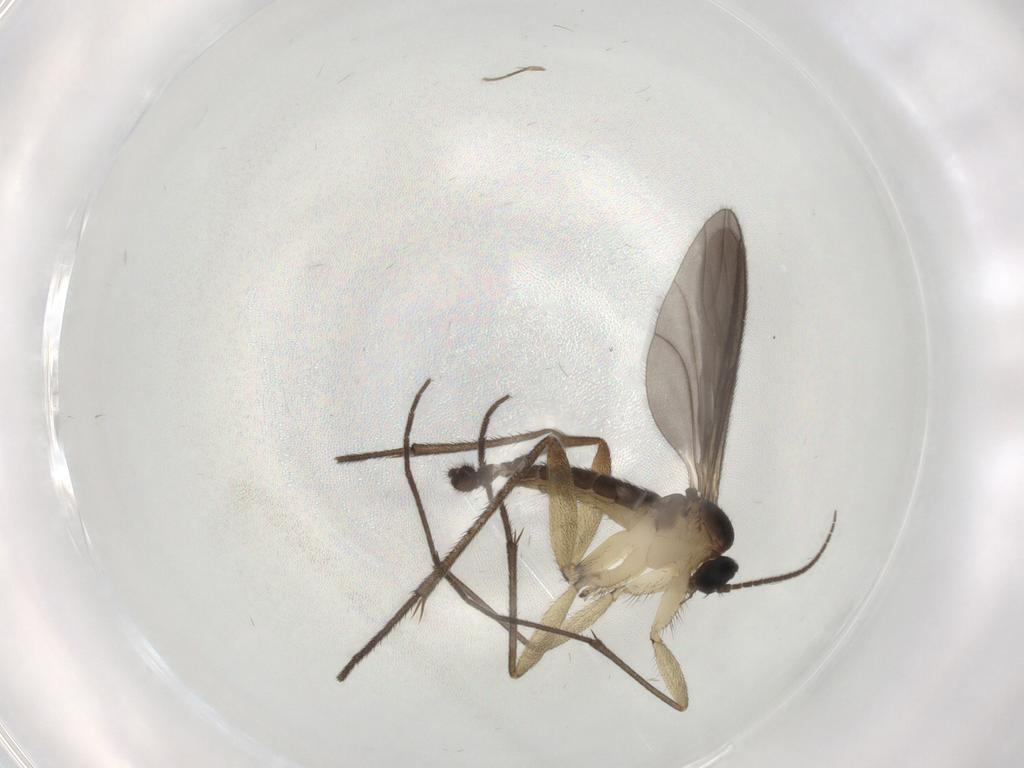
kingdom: Animalia
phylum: Arthropoda
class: Insecta
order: Diptera
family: Sciaridae
